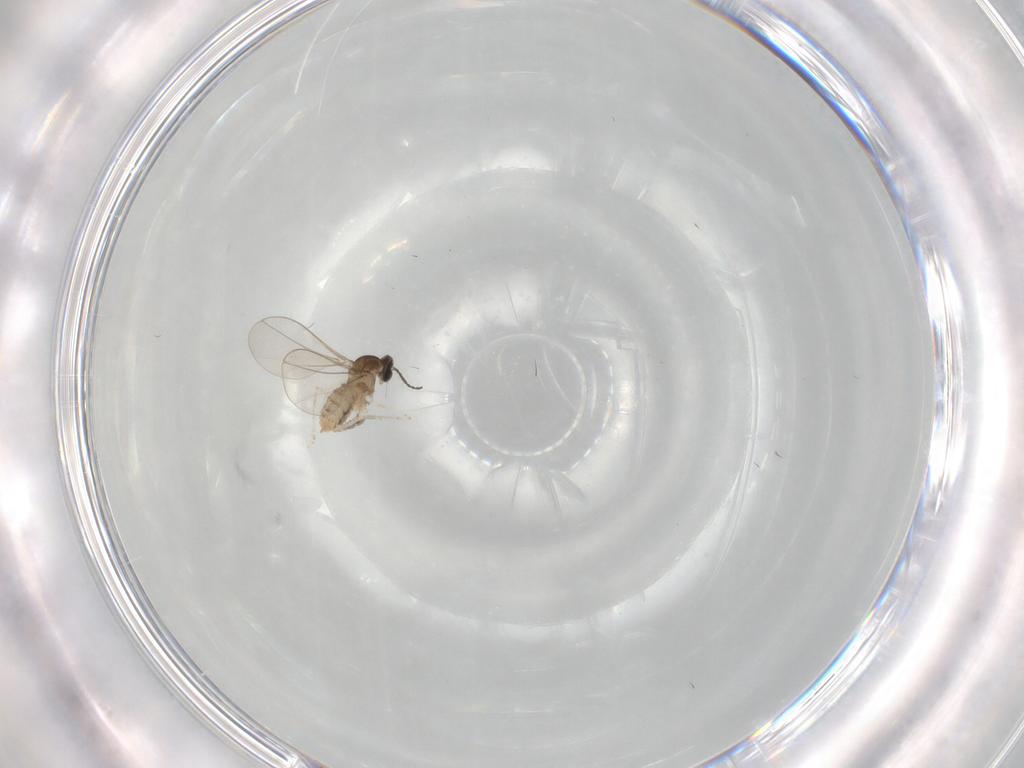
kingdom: Animalia
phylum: Arthropoda
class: Insecta
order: Diptera
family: Cecidomyiidae
